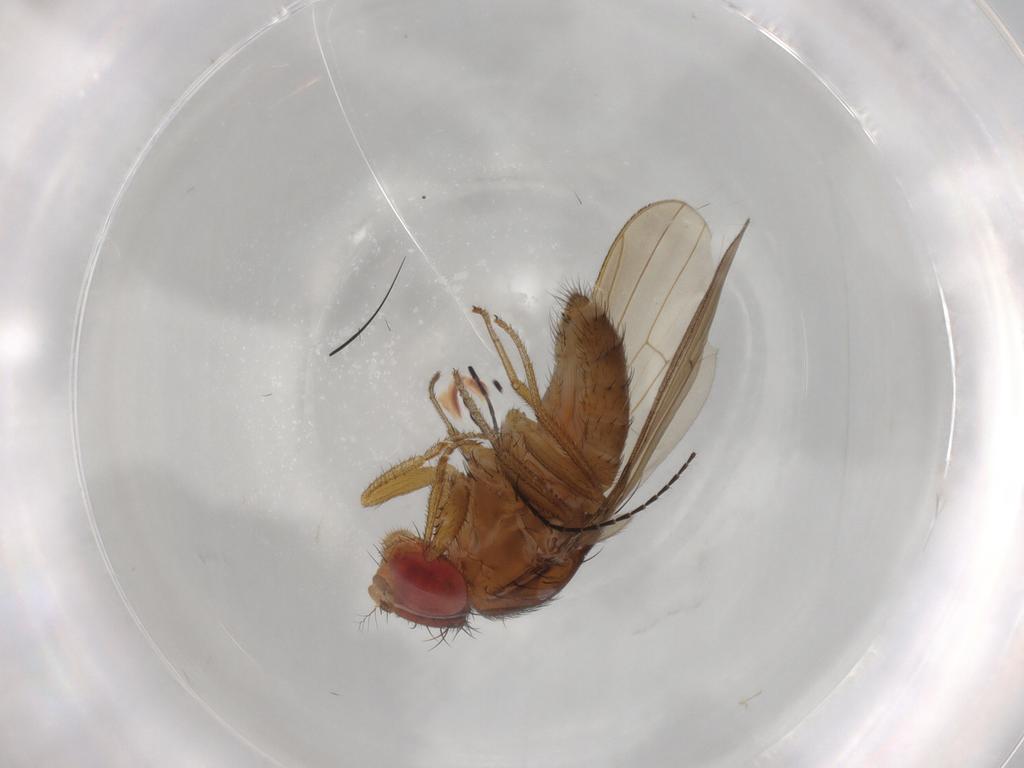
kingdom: Animalia
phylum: Arthropoda
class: Insecta
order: Diptera
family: Drosophilidae
